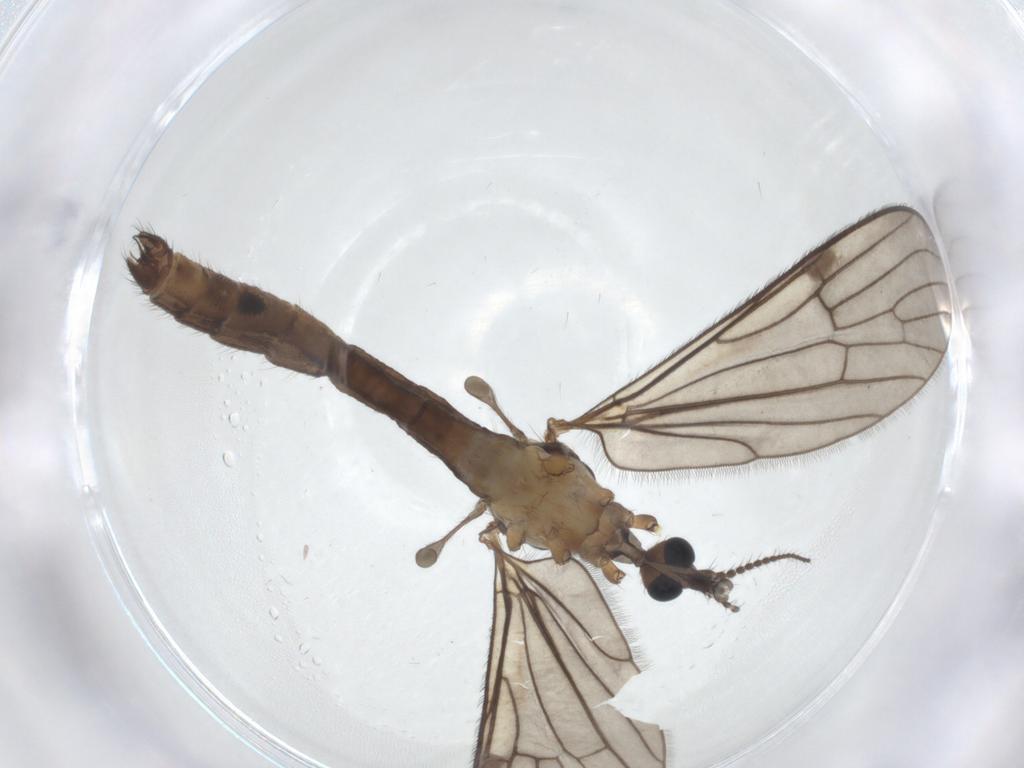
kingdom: Animalia
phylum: Arthropoda
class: Insecta
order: Diptera
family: Limoniidae
